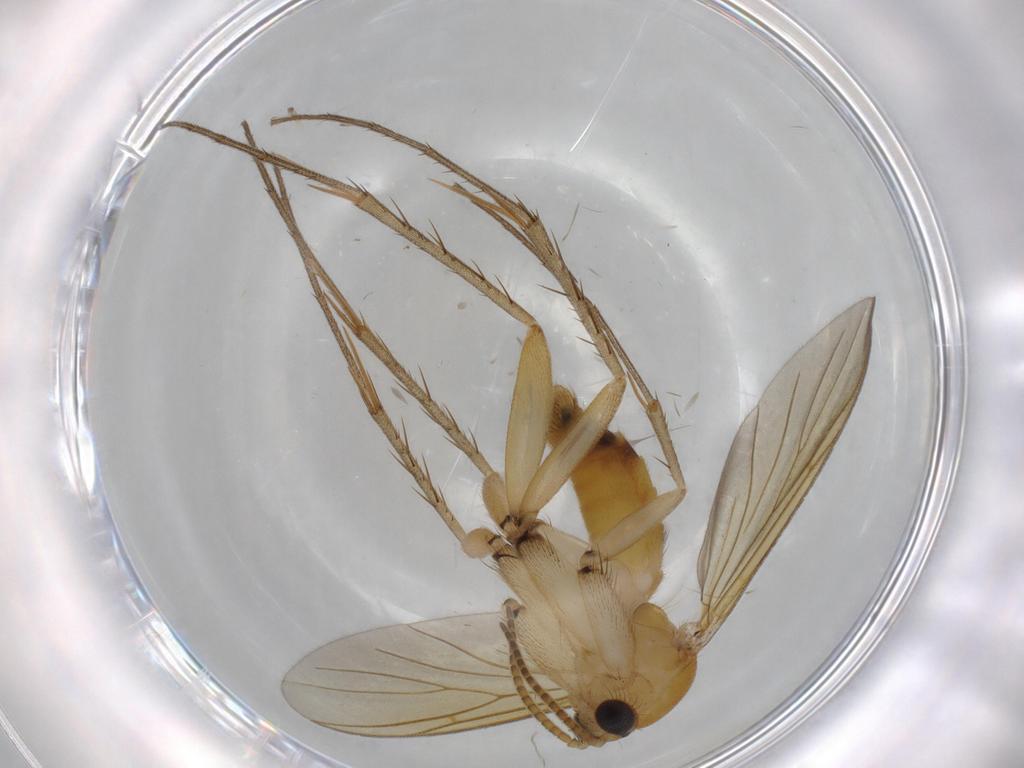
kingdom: Animalia
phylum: Arthropoda
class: Insecta
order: Diptera
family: Sciaridae
